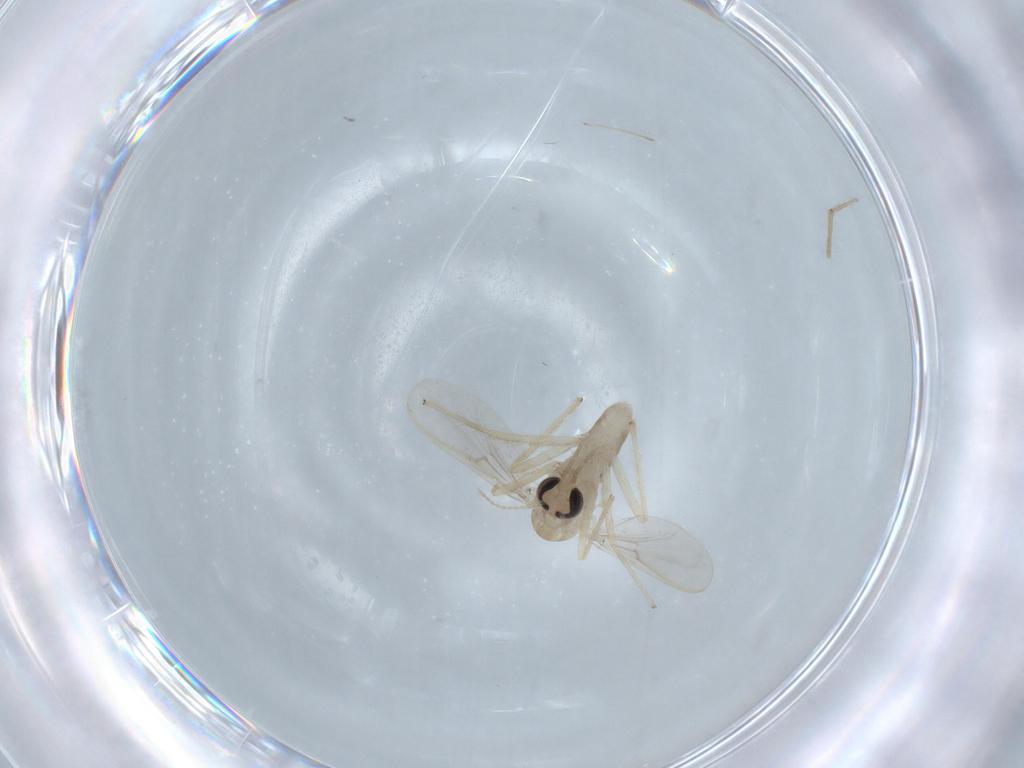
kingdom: Animalia
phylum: Arthropoda
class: Insecta
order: Diptera
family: Chironomidae
